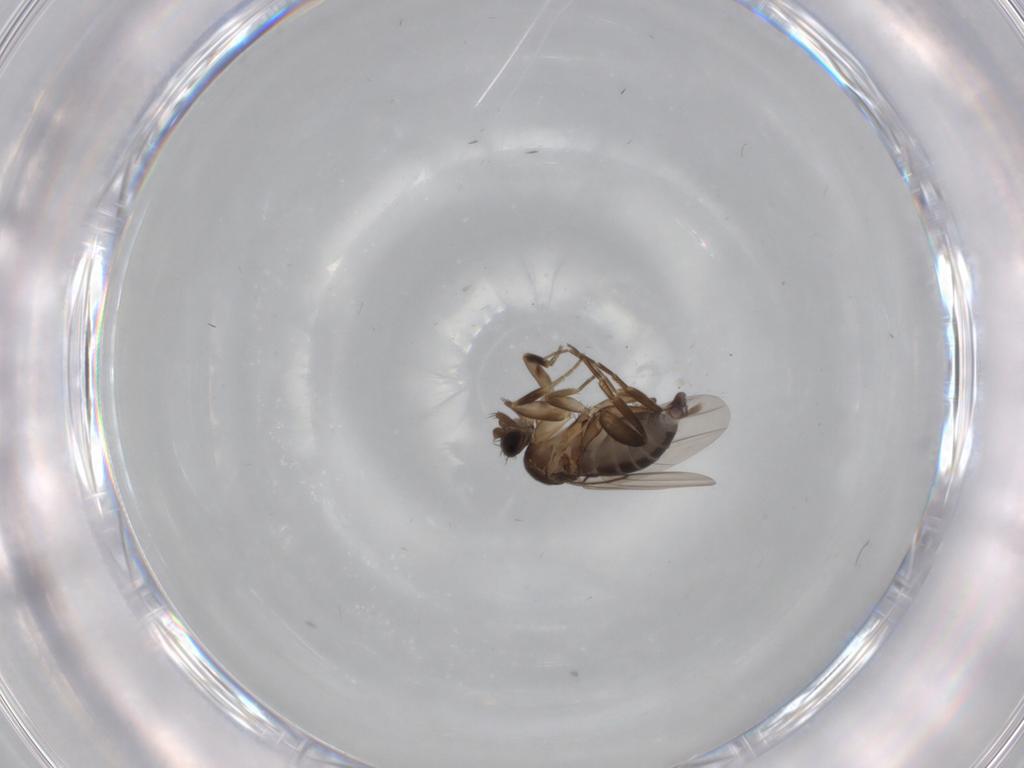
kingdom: Animalia
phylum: Arthropoda
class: Insecta
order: Diptera
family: Phoridae
